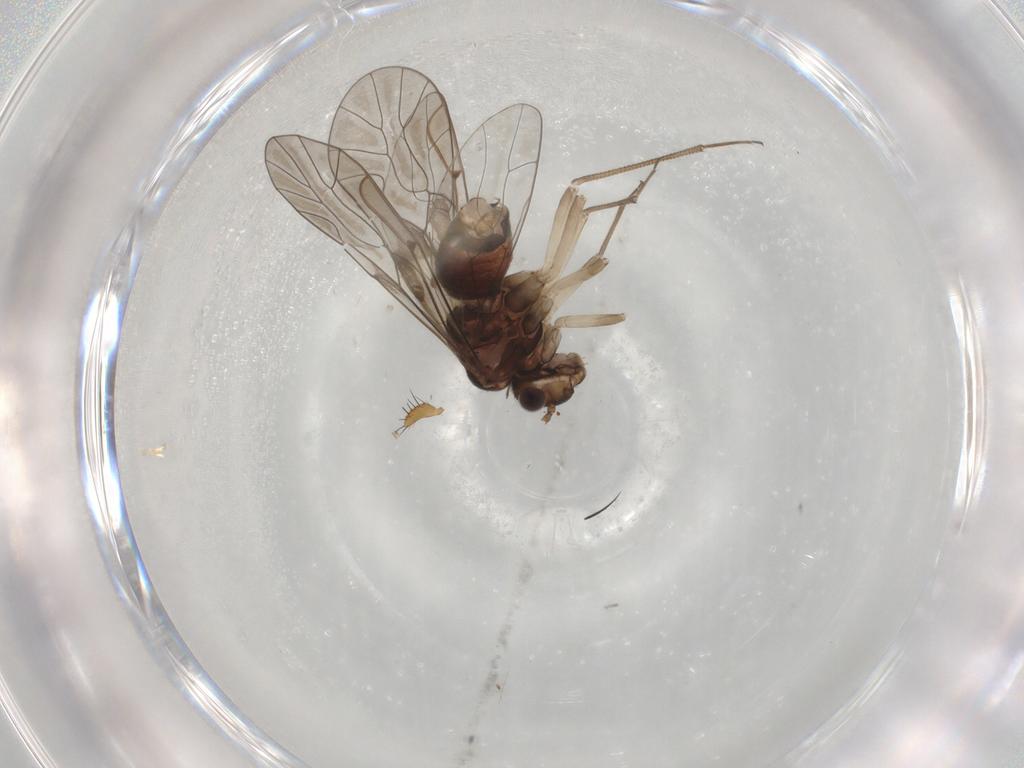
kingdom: Animalia
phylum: Arthropoda
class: Insecta
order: Psocodea
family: Lachesillidae
